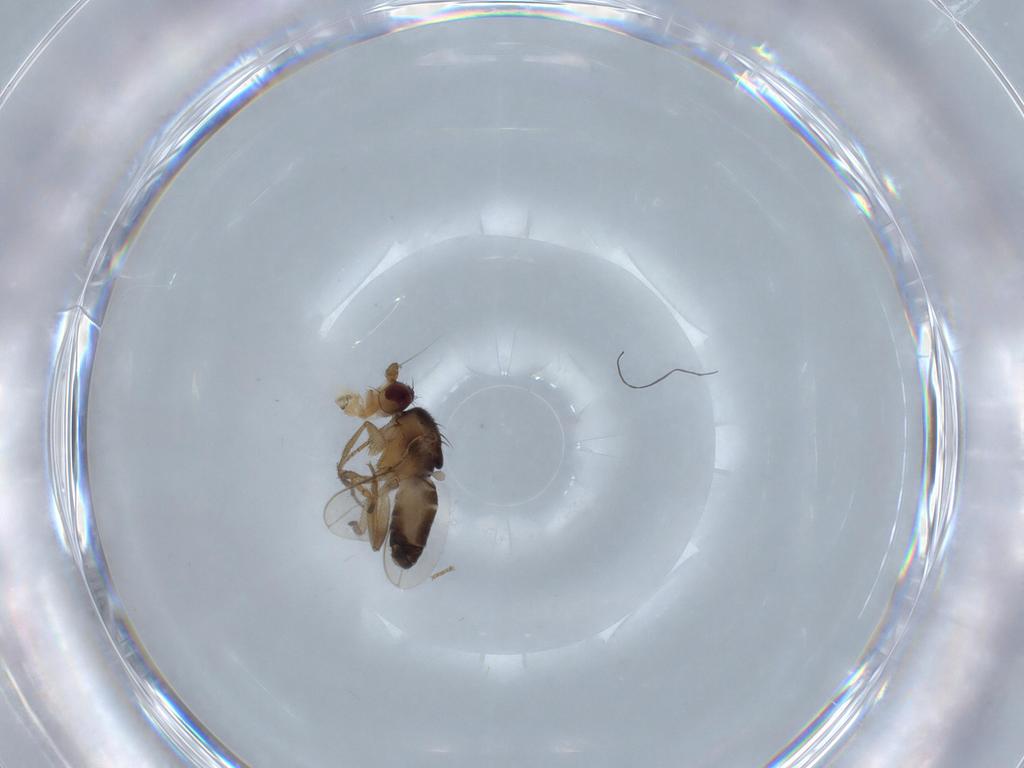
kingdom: Animalia
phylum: Arthropoda
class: Insecta
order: Diptera
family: Sphaeroceridae
